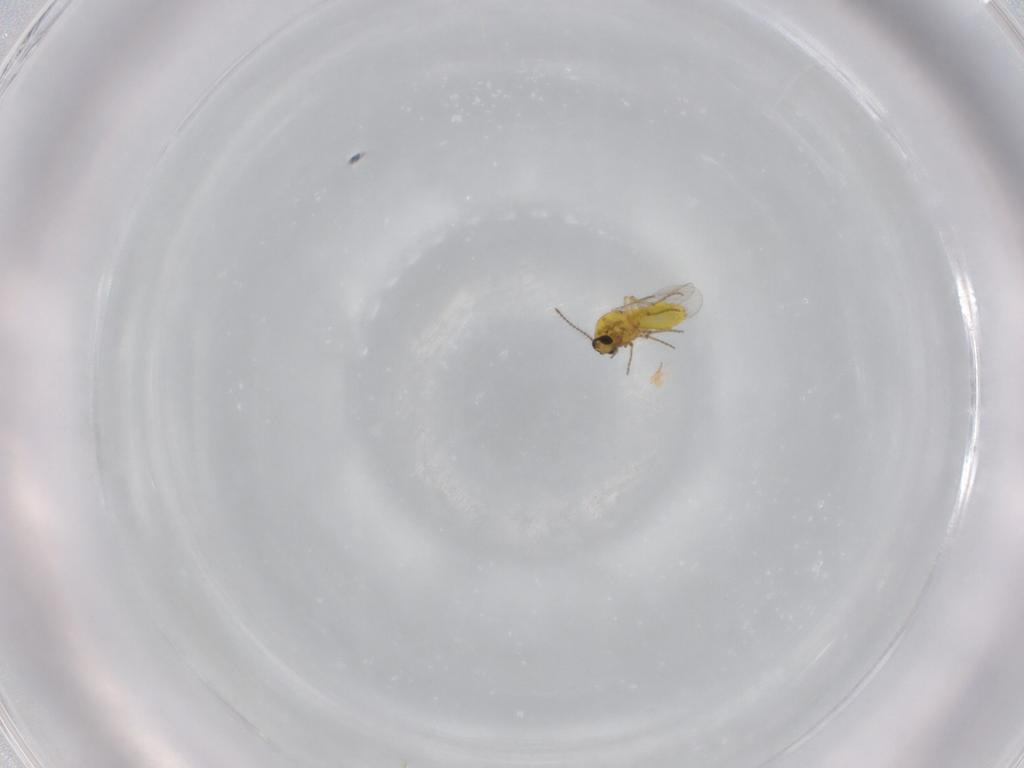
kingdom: Animalia
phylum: Arthropoda
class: Insecta
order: Diptera
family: Ceratopogonidae
